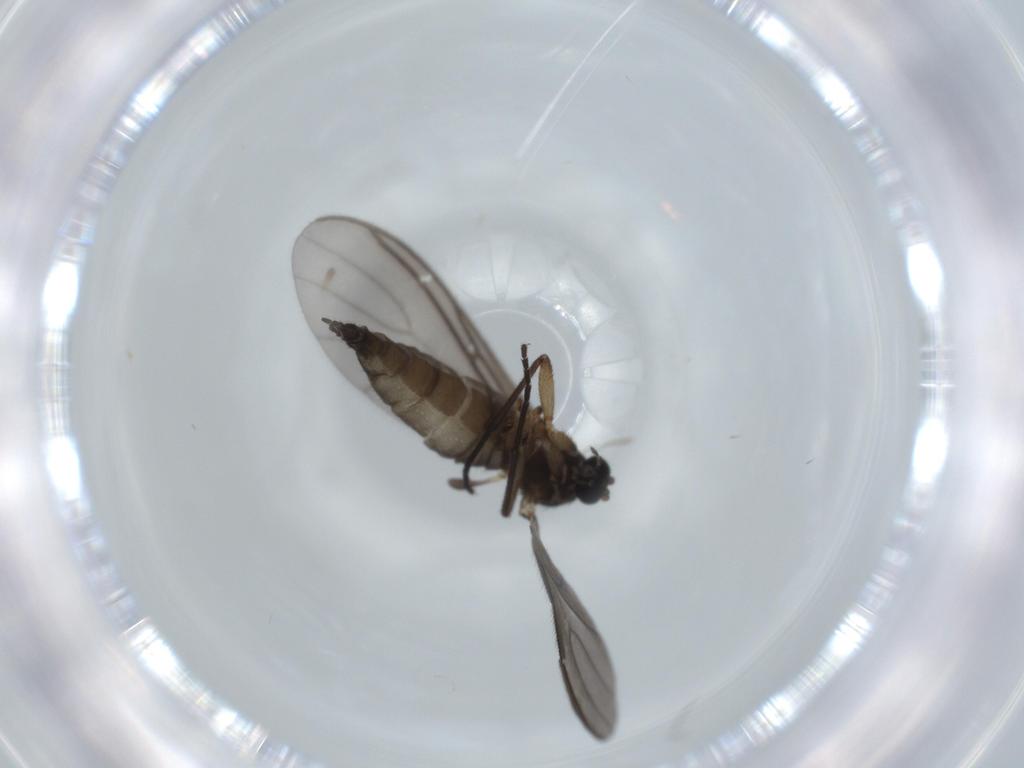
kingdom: Animalia
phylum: Arthropoda
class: Insecta
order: Diptera
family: Sciaridae
